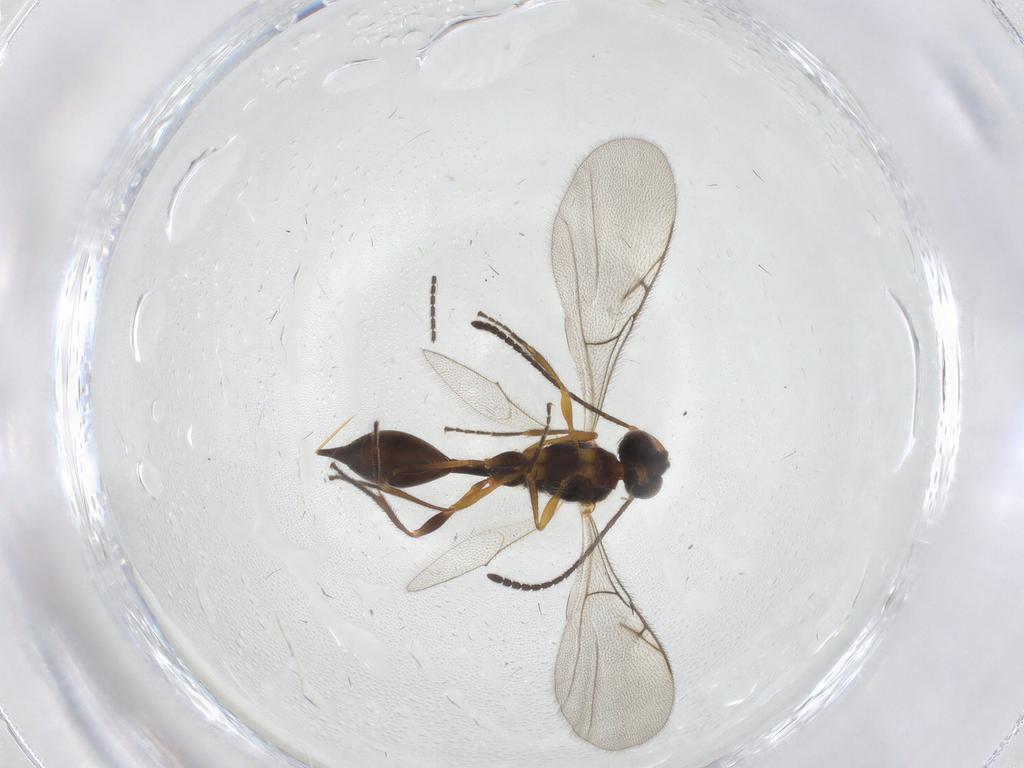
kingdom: Animalia
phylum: Arthropoda
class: Insecta
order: Hymenoptera
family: Diapriidae
